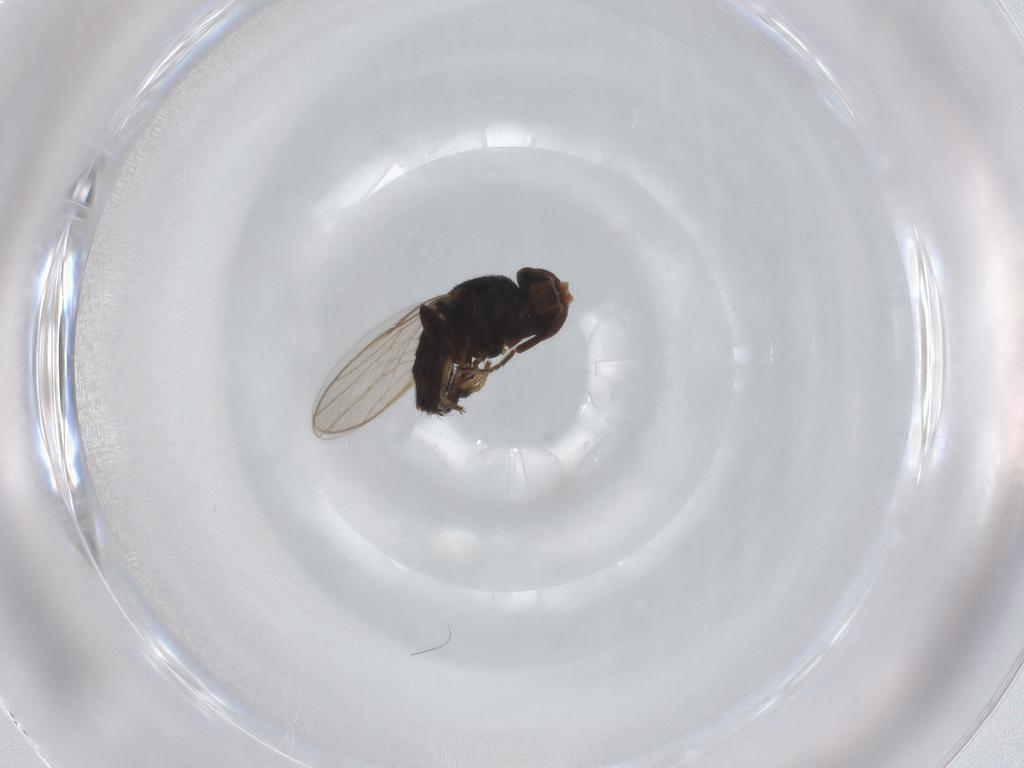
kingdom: Animalia
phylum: Arthropoda
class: Insecta
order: Diptera
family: Chloropidae
